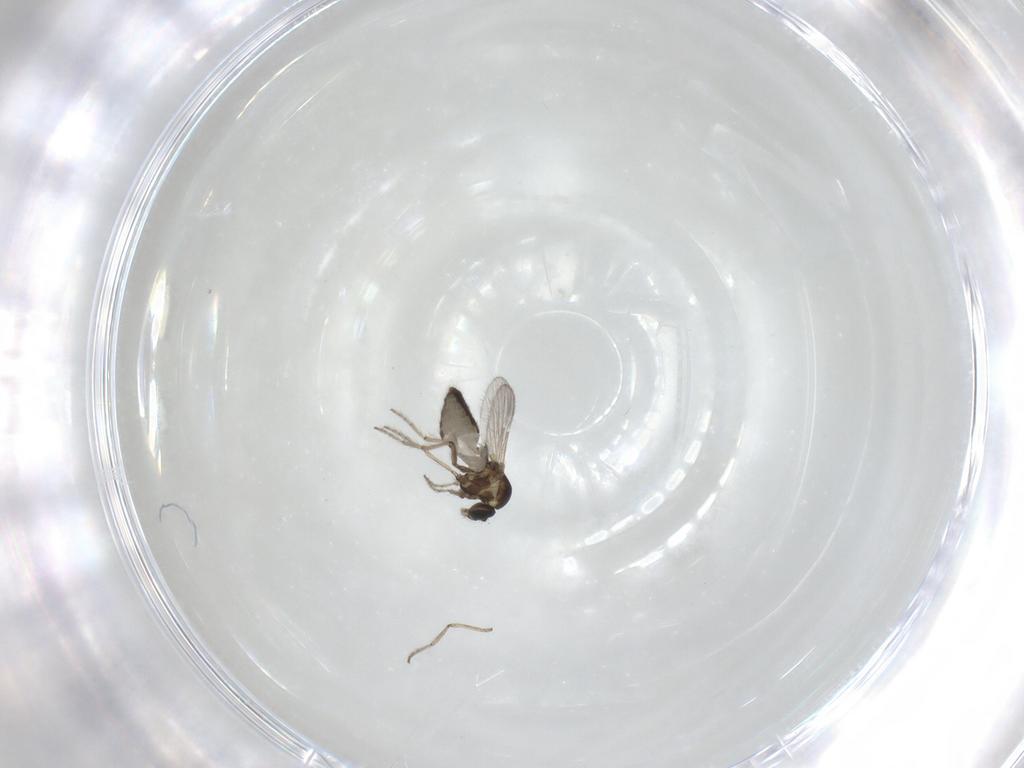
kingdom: Animalia
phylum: Arthropoda
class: Insecta
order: Diptera
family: Ceratopogonidae
